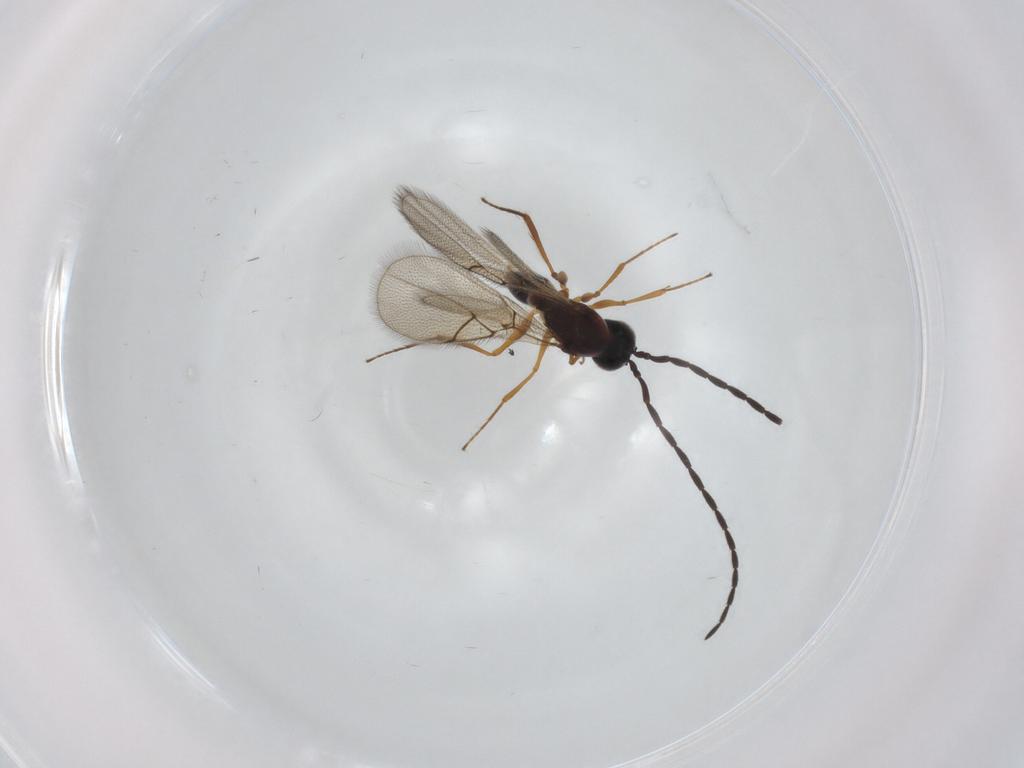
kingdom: Animalia
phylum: Arthropoda
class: Insecta
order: Hymenoptera
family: Figitidae
